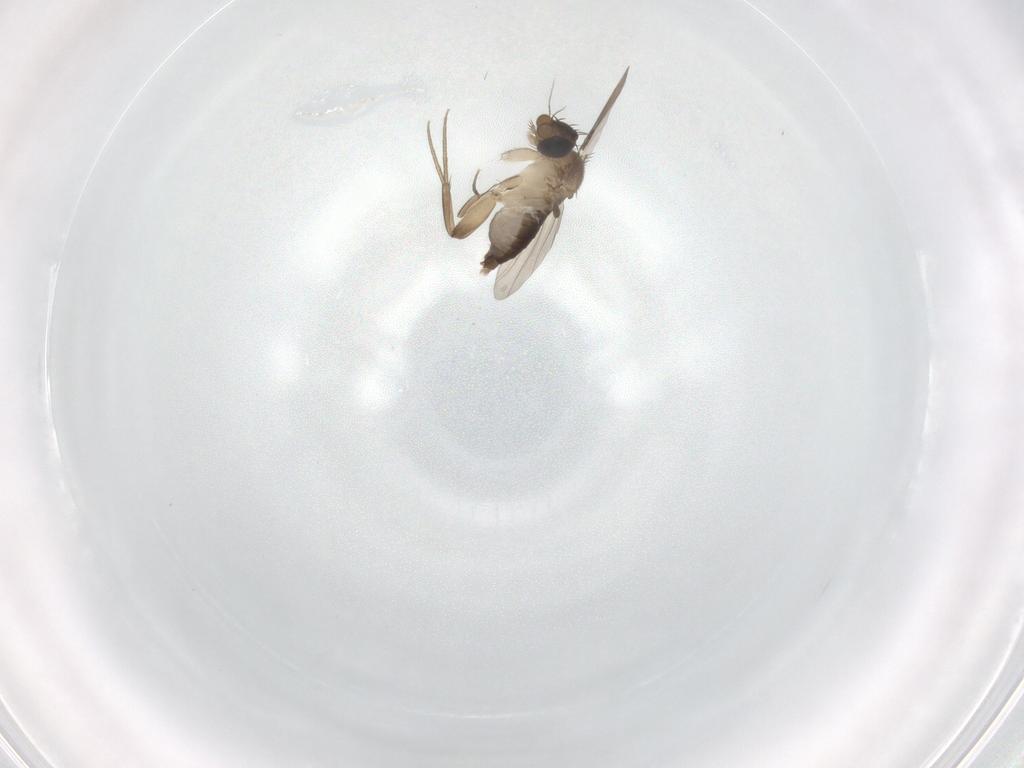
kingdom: Animalia
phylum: Arthropoda
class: Insecta
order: Diptera
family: Phoridae
